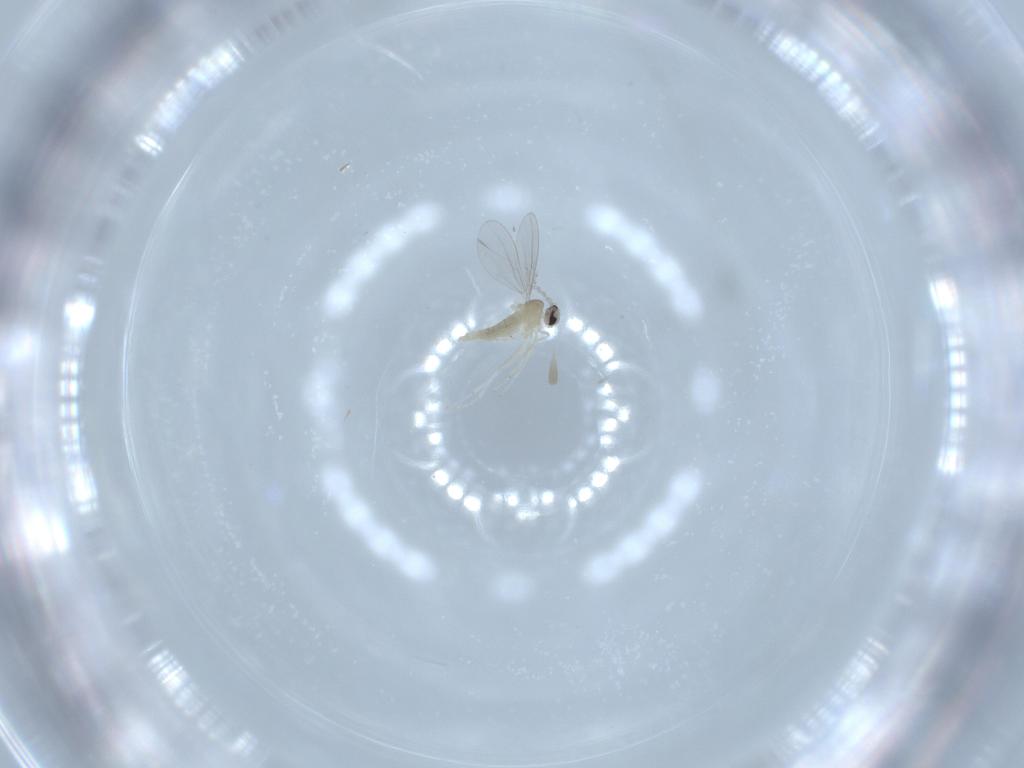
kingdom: Animalia
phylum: Arthropoda
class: Insecta
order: Diptera
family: Cecidomyiidae
